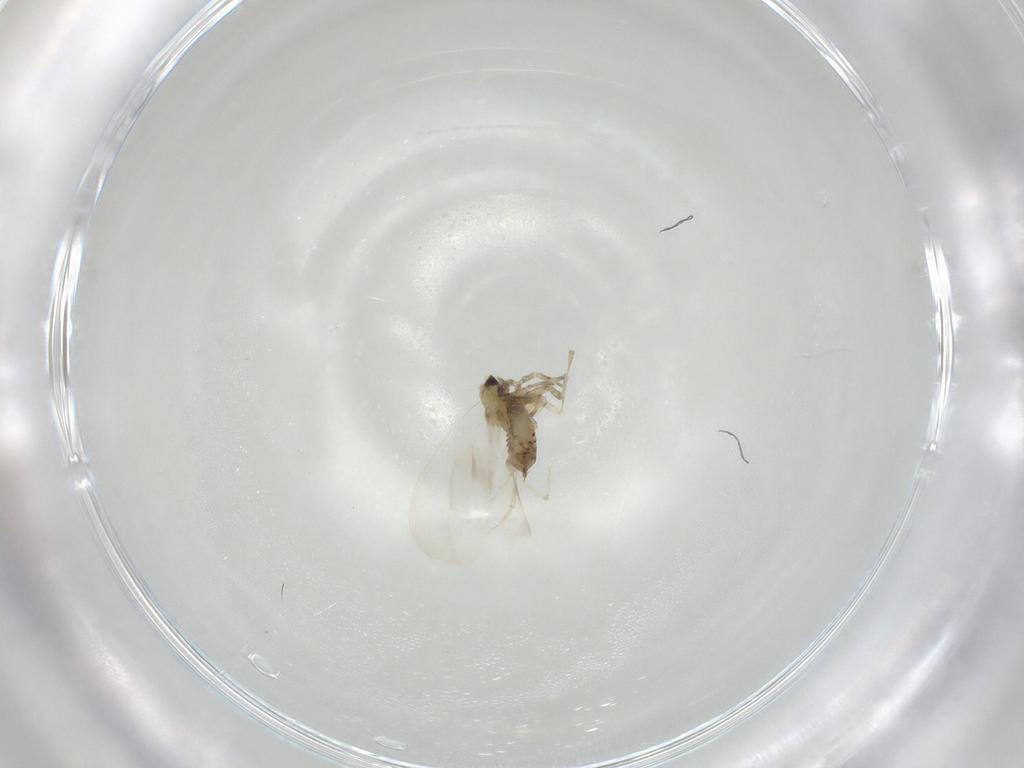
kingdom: Animalia
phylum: Arthropoda
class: Insecta
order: Hemiptera
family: Aleyrodidae
